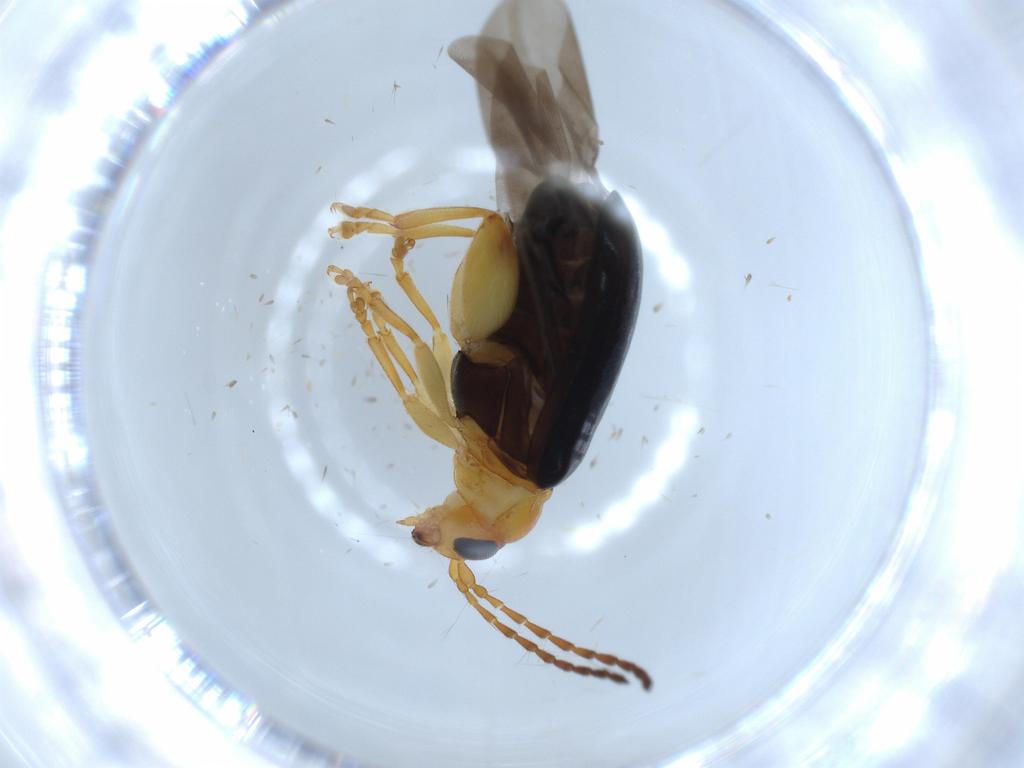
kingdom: Animalia
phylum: Arthropoda
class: Insecta
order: Coleoptera
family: Chrysomelidae
